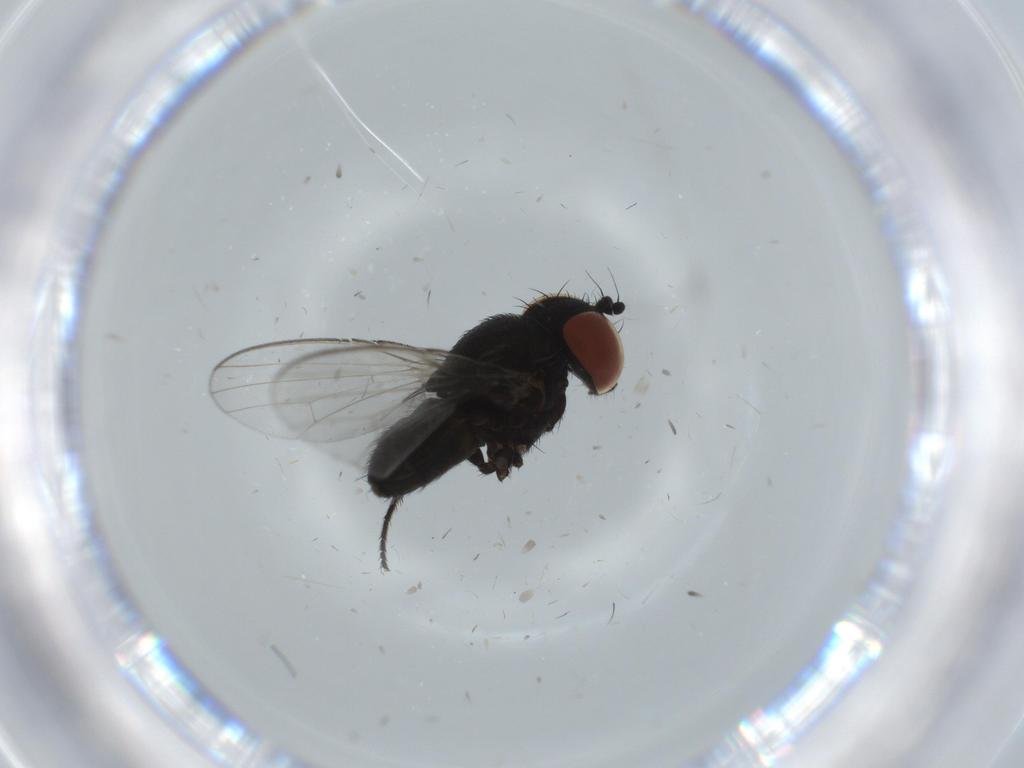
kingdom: Animalia
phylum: Arthropoda
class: Insecta
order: Diptera
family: Milichiidae
